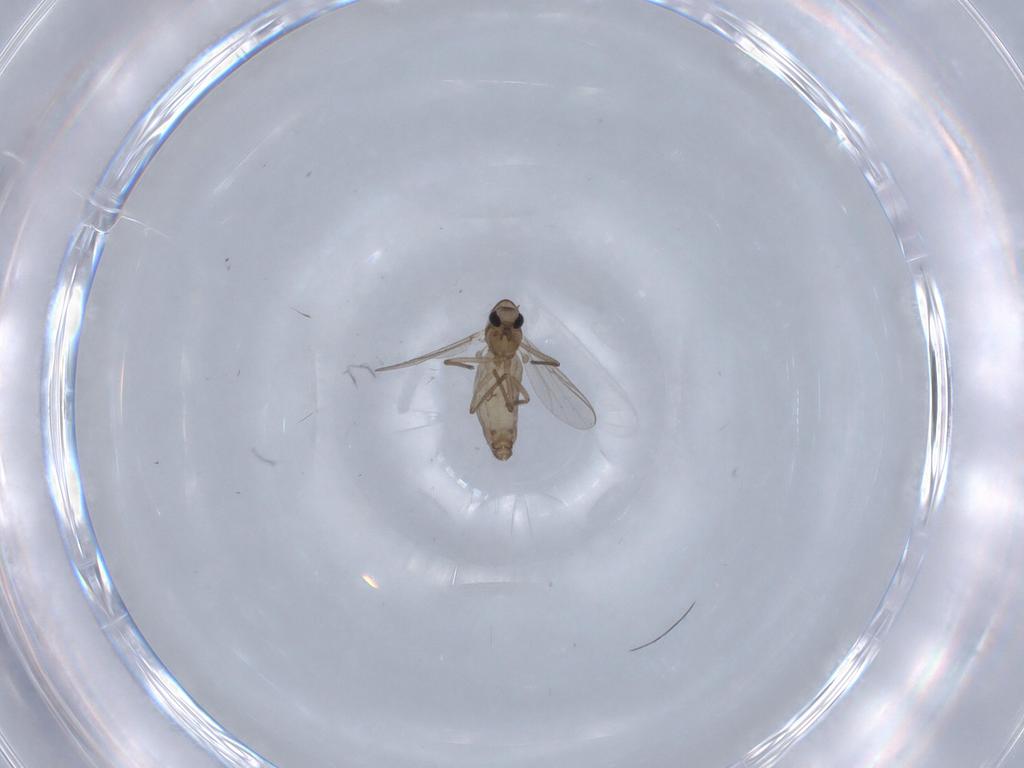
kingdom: Animalia
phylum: Arthropoda
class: Insecta
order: Diptera
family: Chironomidae
